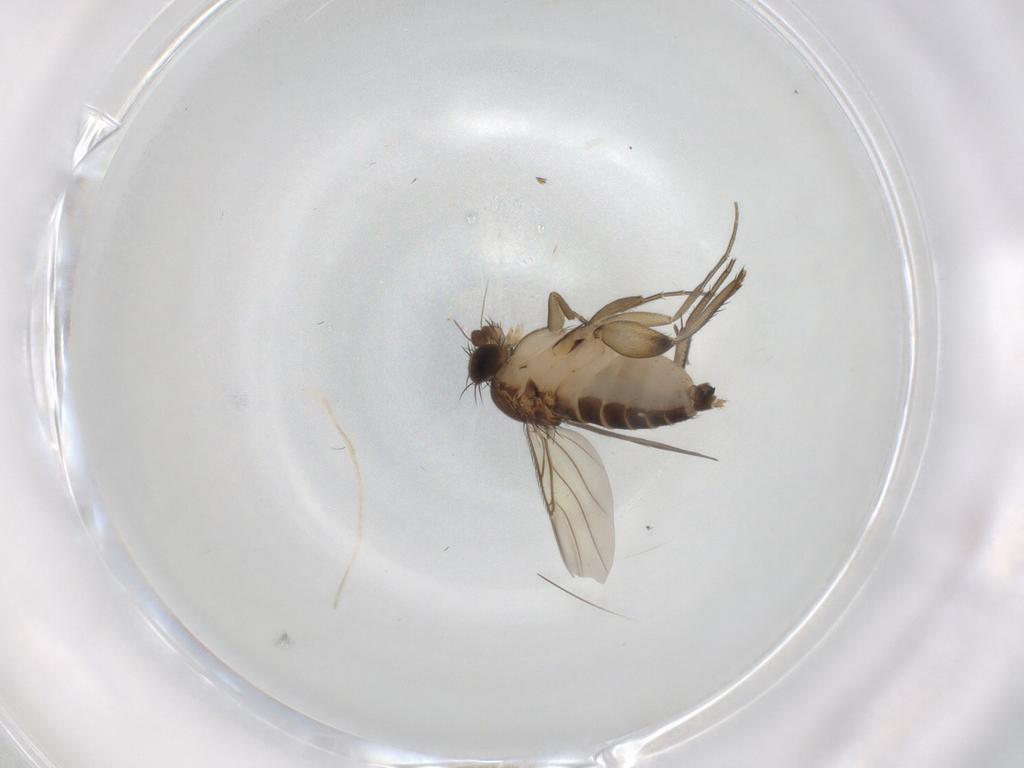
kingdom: Animalia
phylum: Arthropoda
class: Insecta
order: Diptera
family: Phoridae
